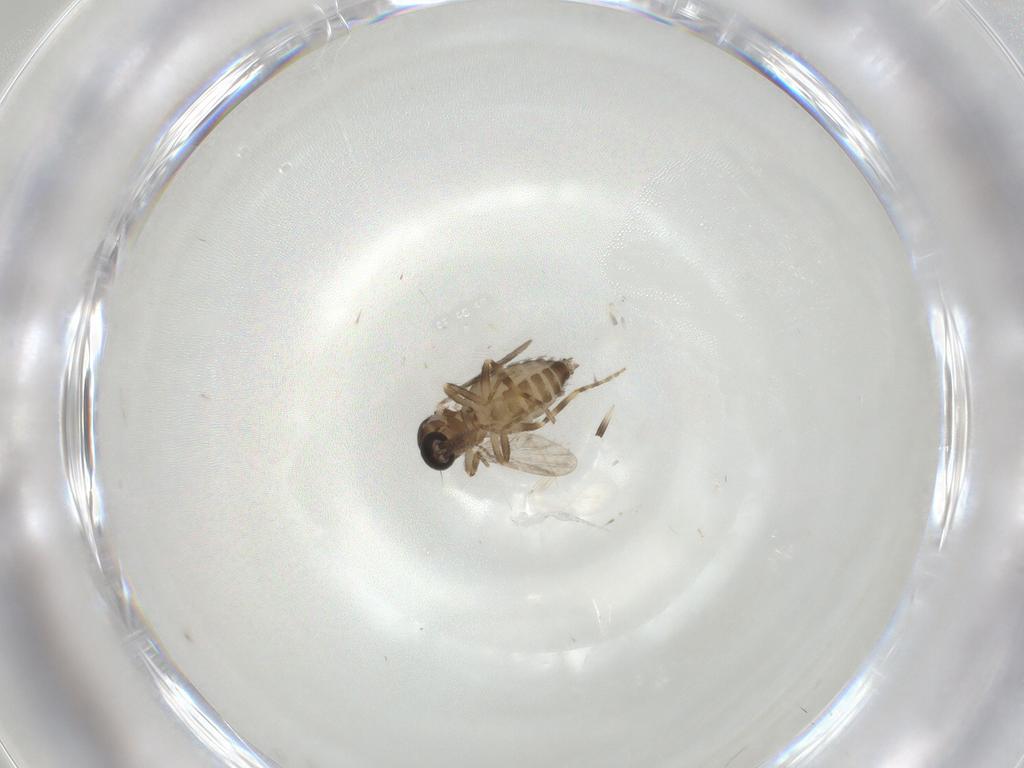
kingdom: Animalia
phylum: Arthropoda
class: Insecta
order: Diptera
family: Ceratopogonidae
